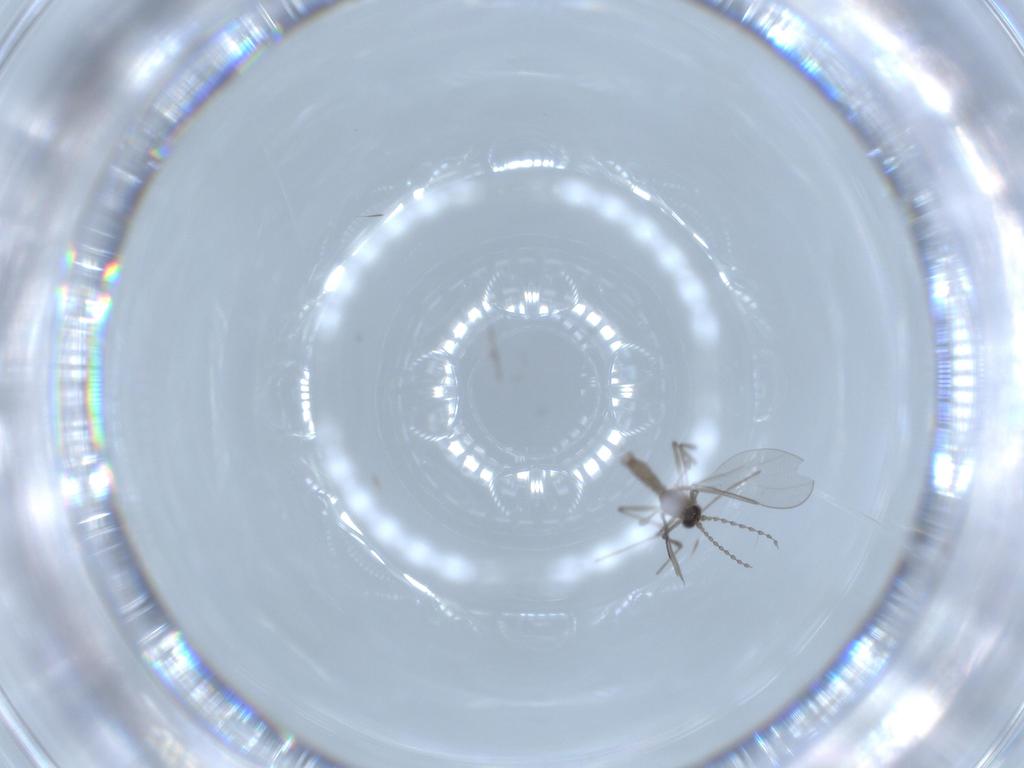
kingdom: Animalia
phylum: Arthropoda
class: Insecta
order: Diptera
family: Cecidomyiidae
